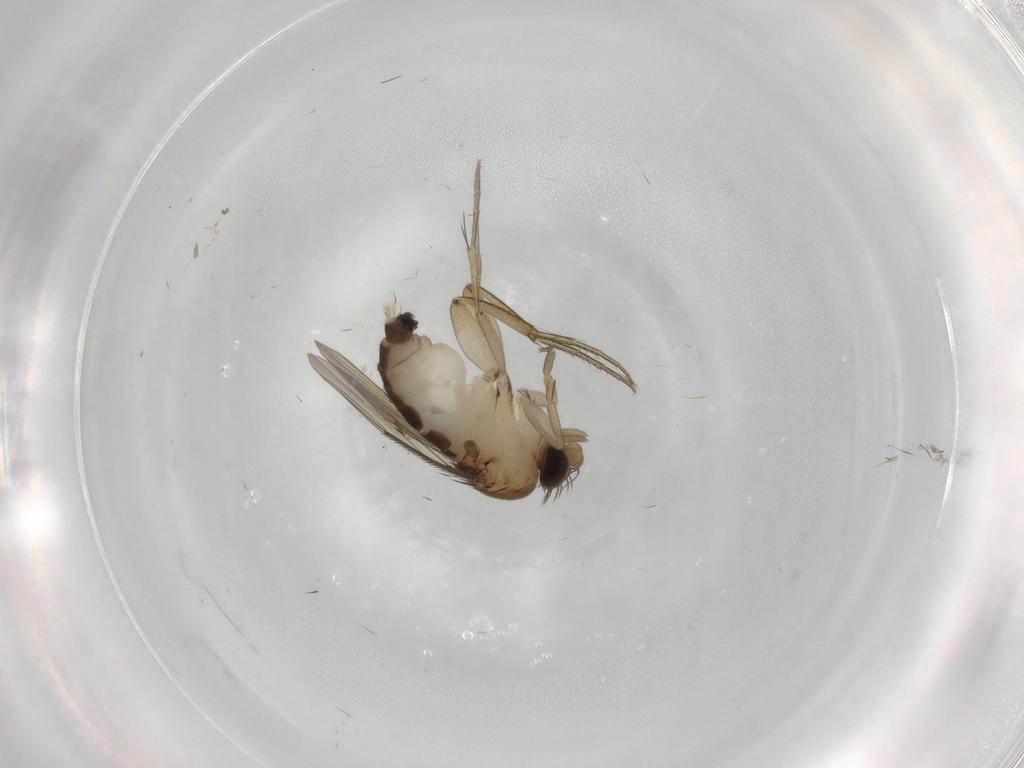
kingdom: Animalia
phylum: Arthropoda
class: Insecta
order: Diptera
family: Phoridae
